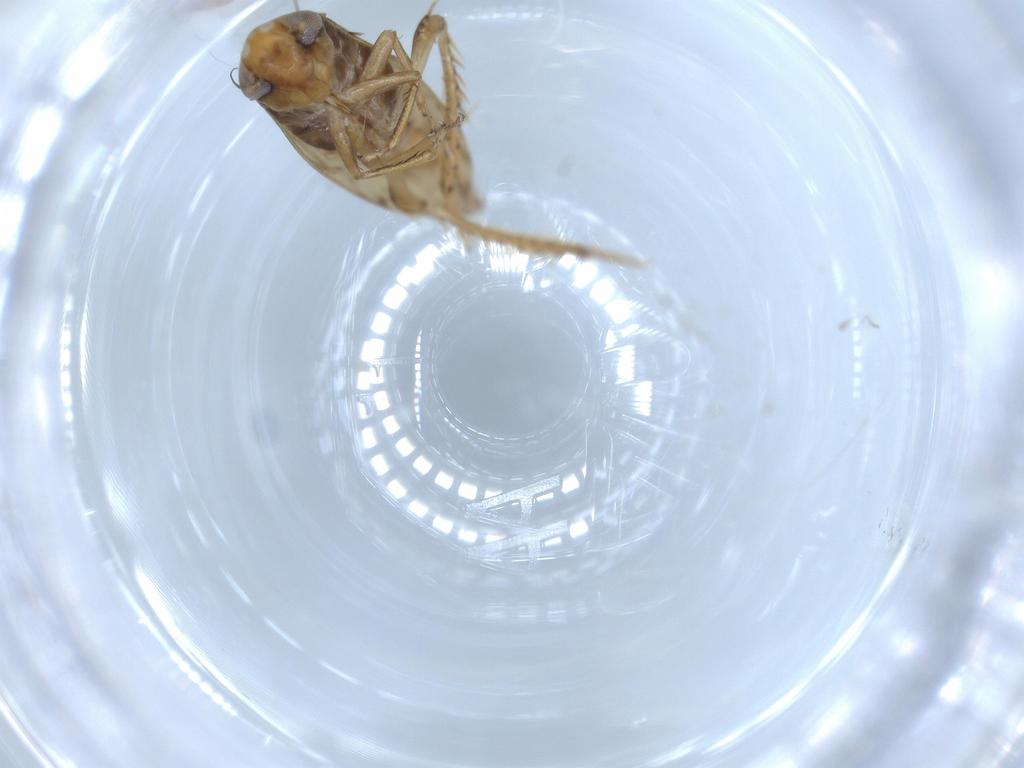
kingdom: Animalia
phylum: Arthropoda
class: Insecta
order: Hemiptera
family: Cicadellidae
